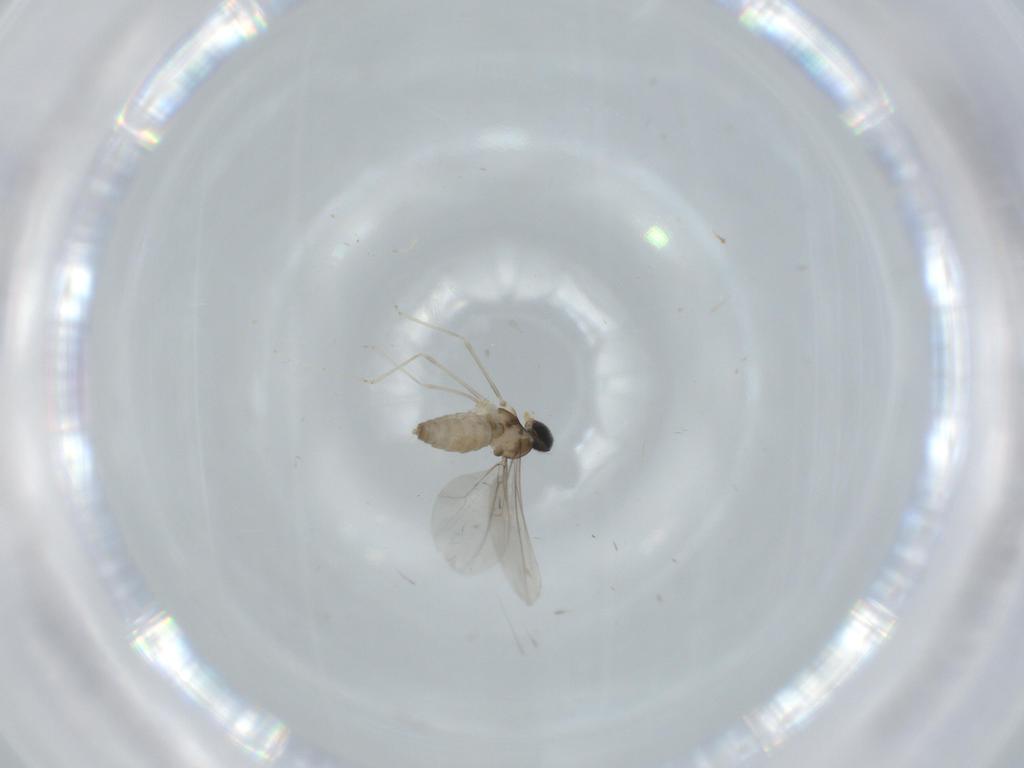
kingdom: Animalia
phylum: Arthropoda
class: Insecta
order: Diptera
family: Cecidomyiidae
